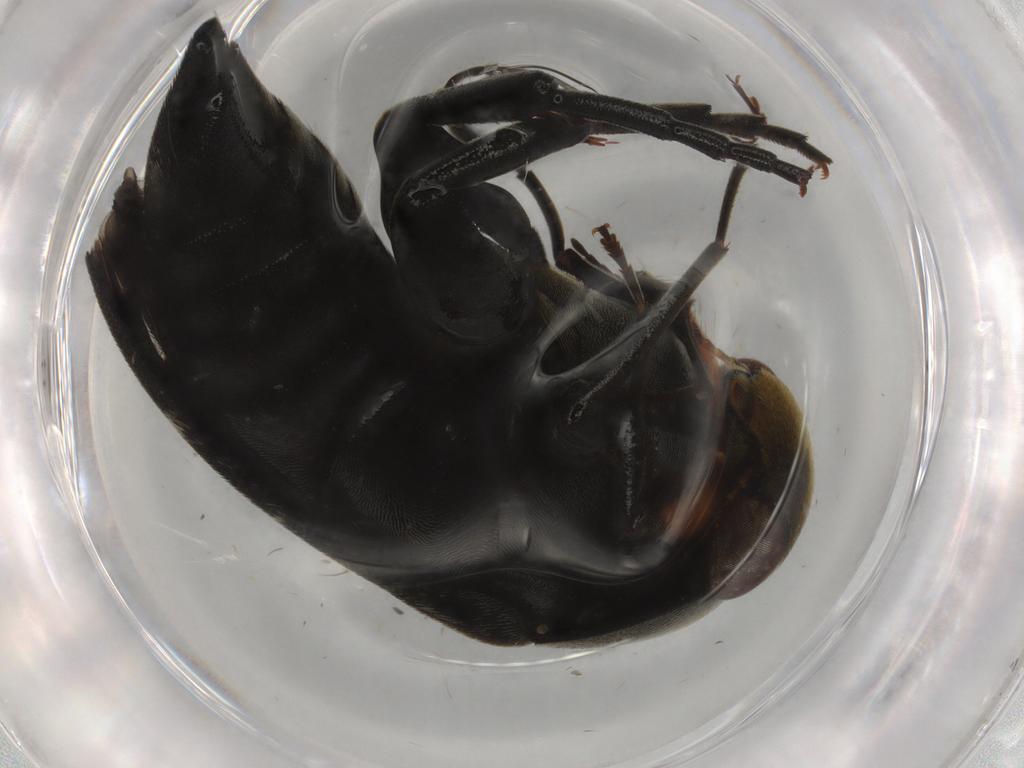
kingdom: Animalia
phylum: Arthropoda
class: Insecta
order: Coleoptera
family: Mordellidae
